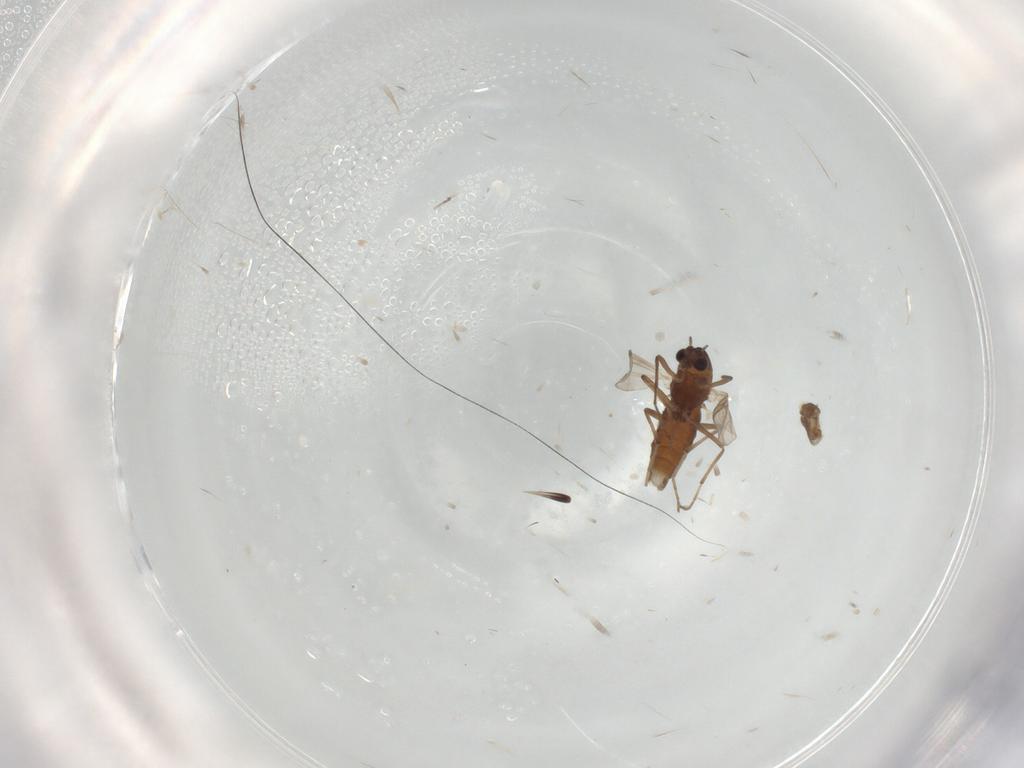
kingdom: Animalia
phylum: Arthropoda
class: Insecta
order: Diptera
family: Chironomidae
